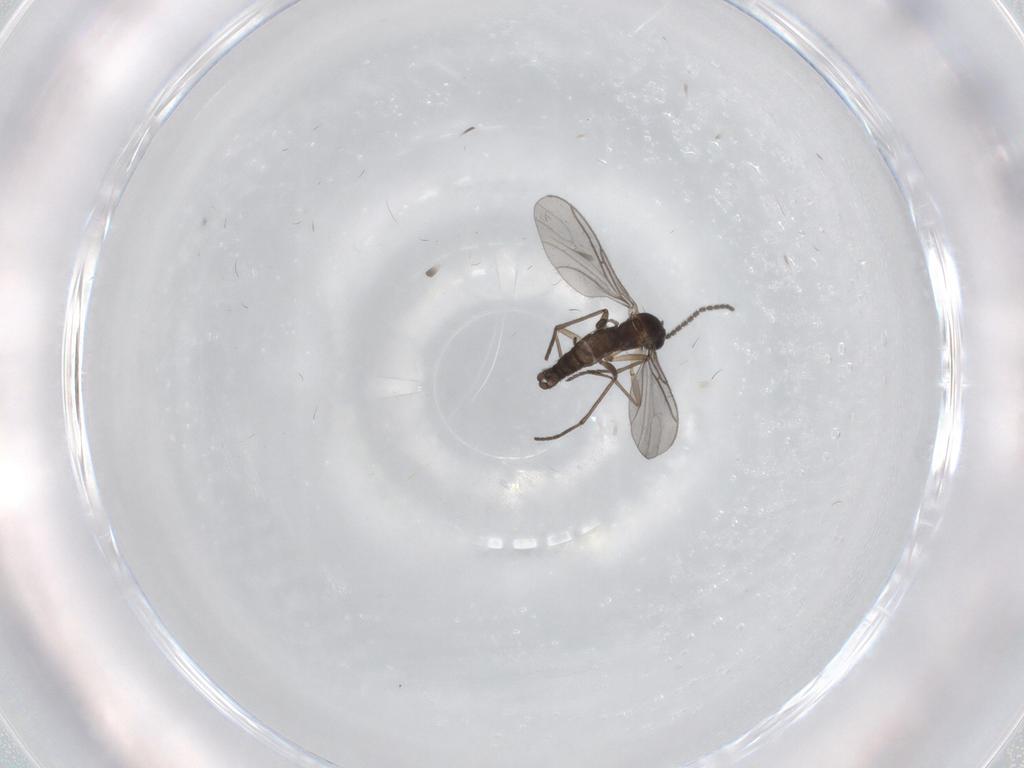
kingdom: Animalia
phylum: Arthropoda
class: Insecta
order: Diptera
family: Sciaridae
